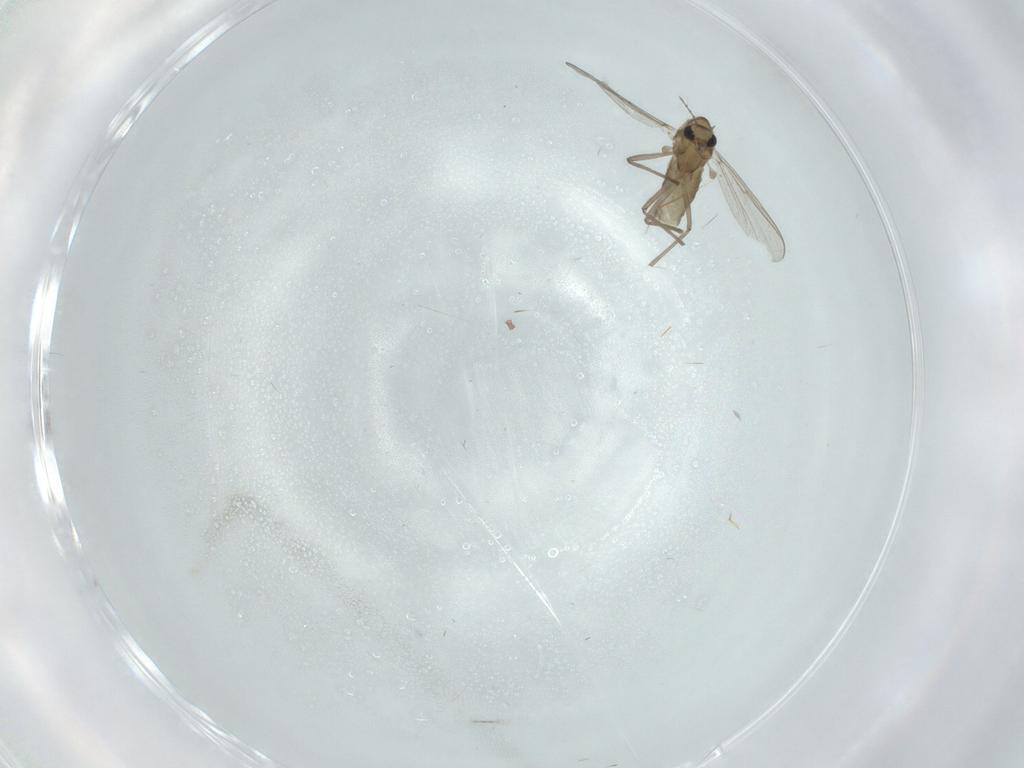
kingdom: Animalia
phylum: Arthropoda
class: Insecta
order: Diptera
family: Chironomidae
